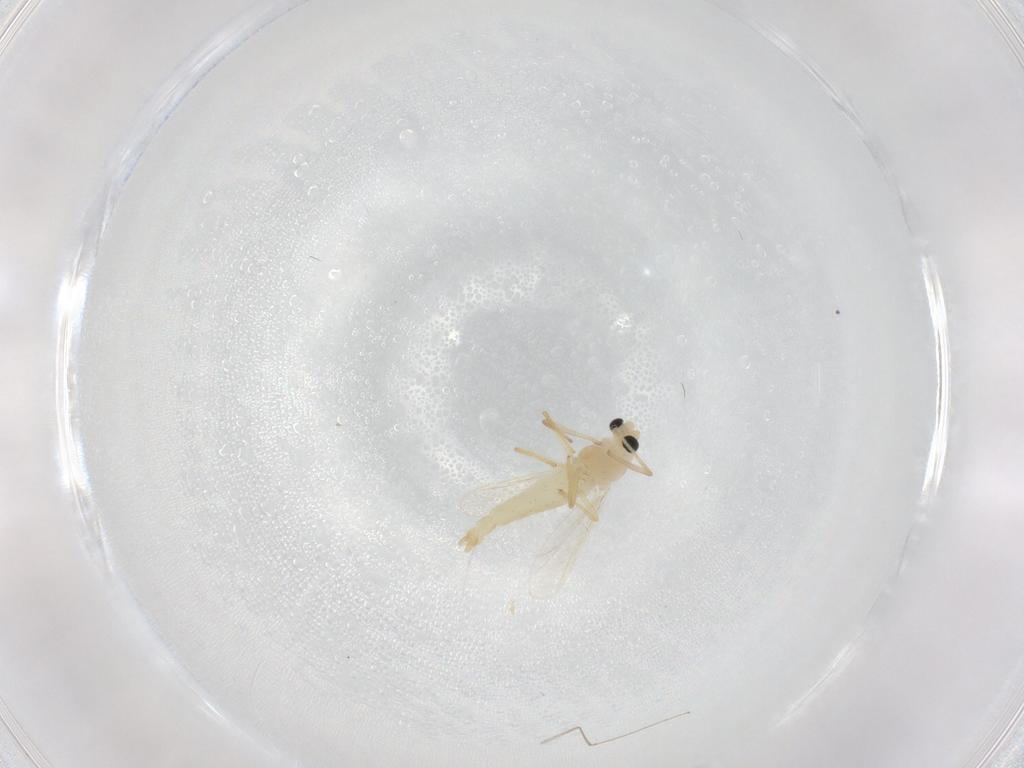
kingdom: Animalia
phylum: Arthropoda
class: Insecta
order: Diptera
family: Chironomidae
